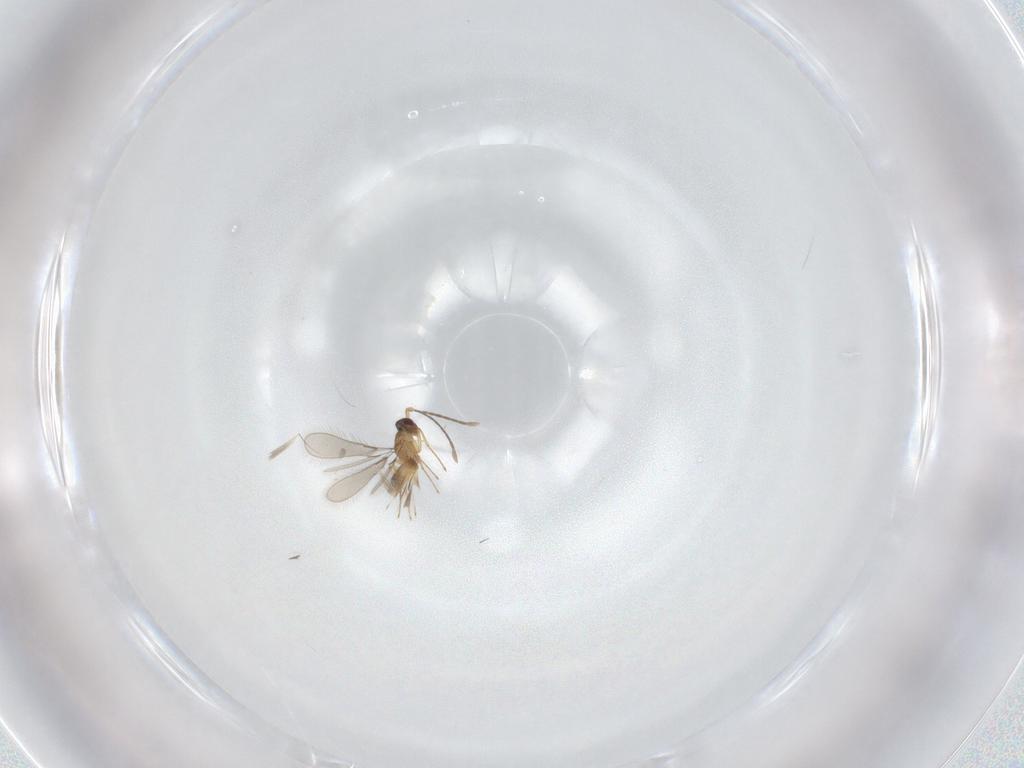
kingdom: Animalia
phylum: Arthropoda
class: Insecta
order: Hymenoptera
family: Mymaridae
